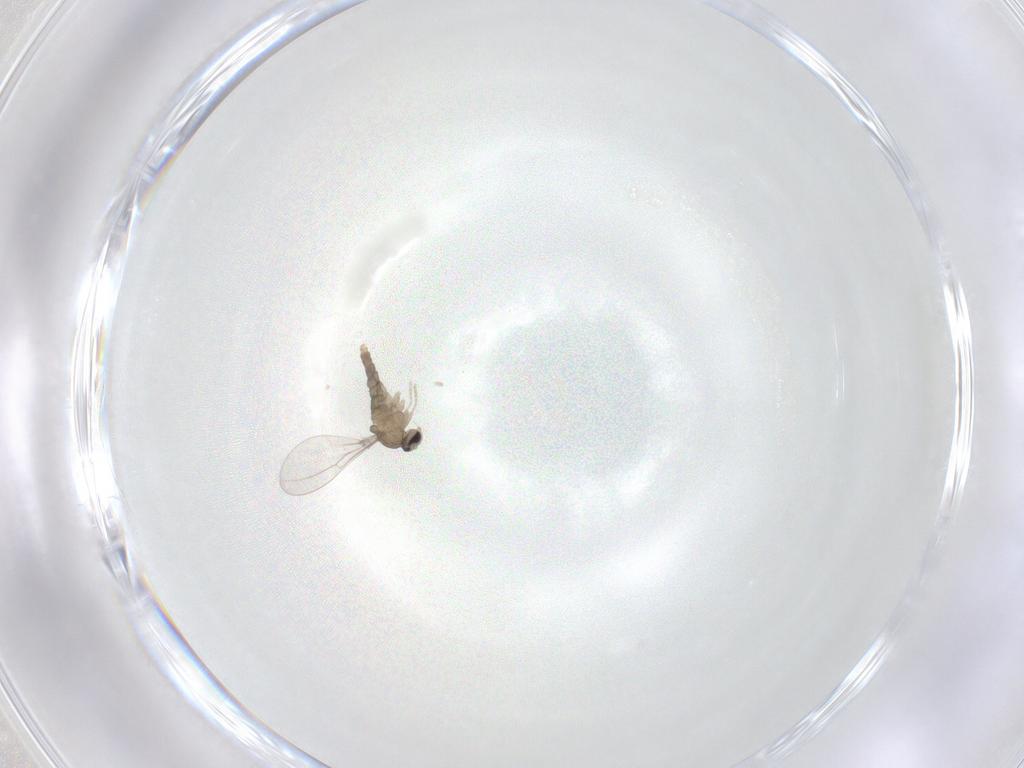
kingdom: Animalia
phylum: Arthropoda
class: Insecta
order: Diptera
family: Cecidomyiidae
